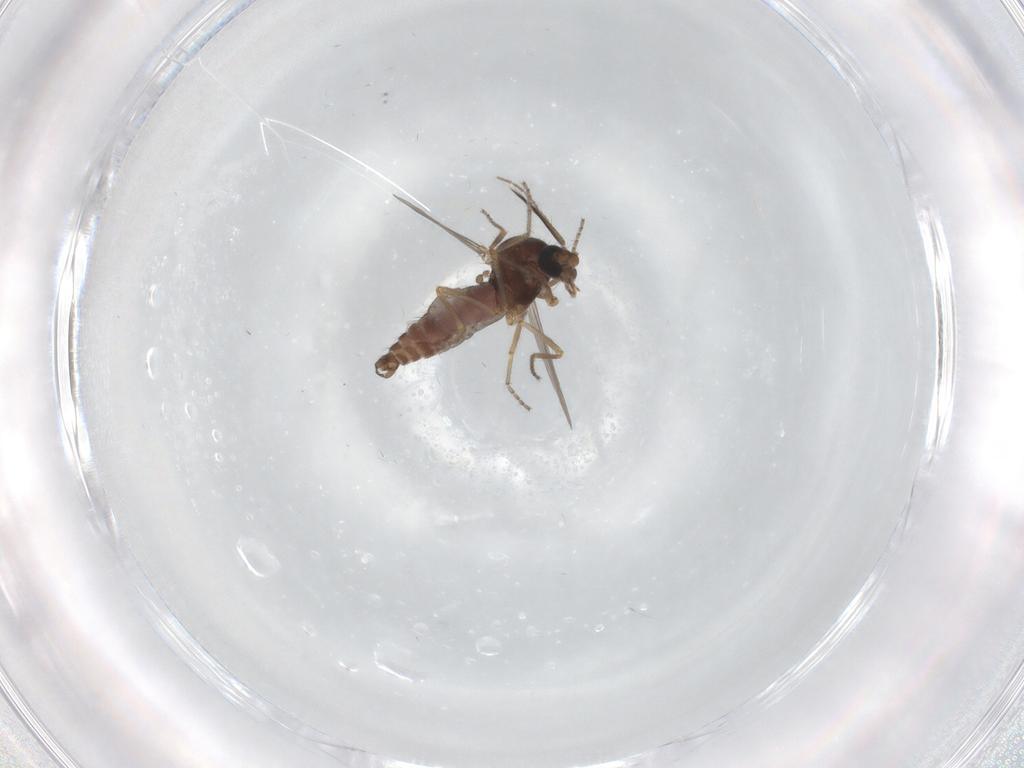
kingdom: Animalia
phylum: Arthropoda
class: Insecta
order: Diptera
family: Ceratopogonidae
